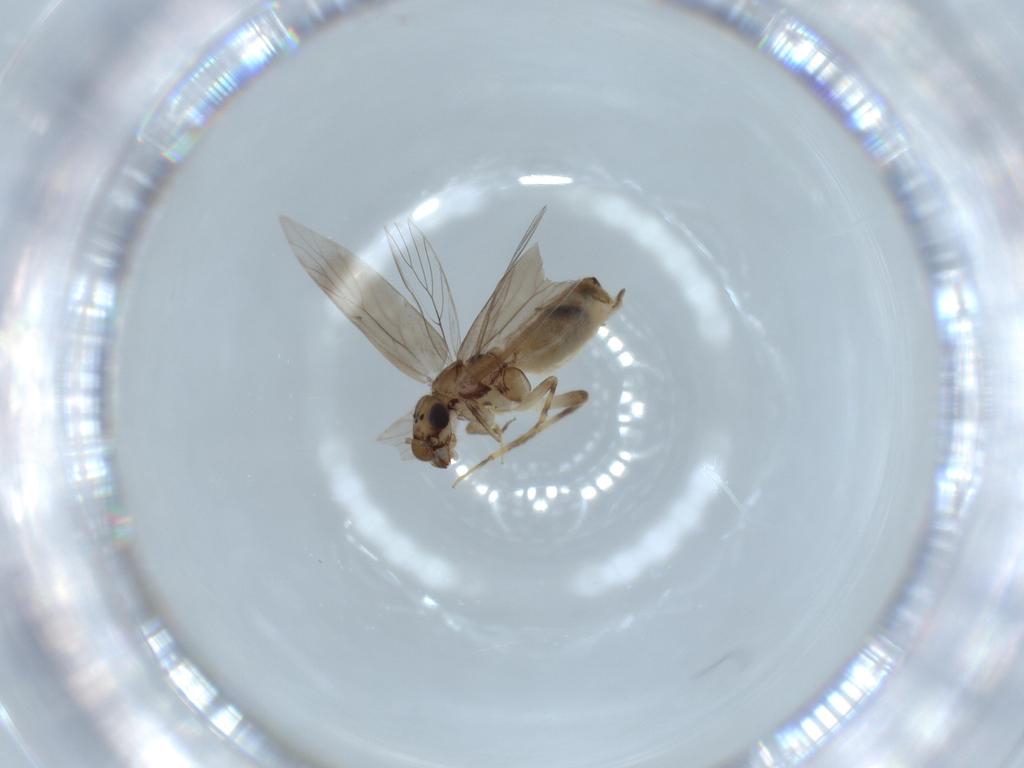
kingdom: Animalia
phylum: Arthropoda
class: Insecta
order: Psocodea
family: Lepidopsocidae
